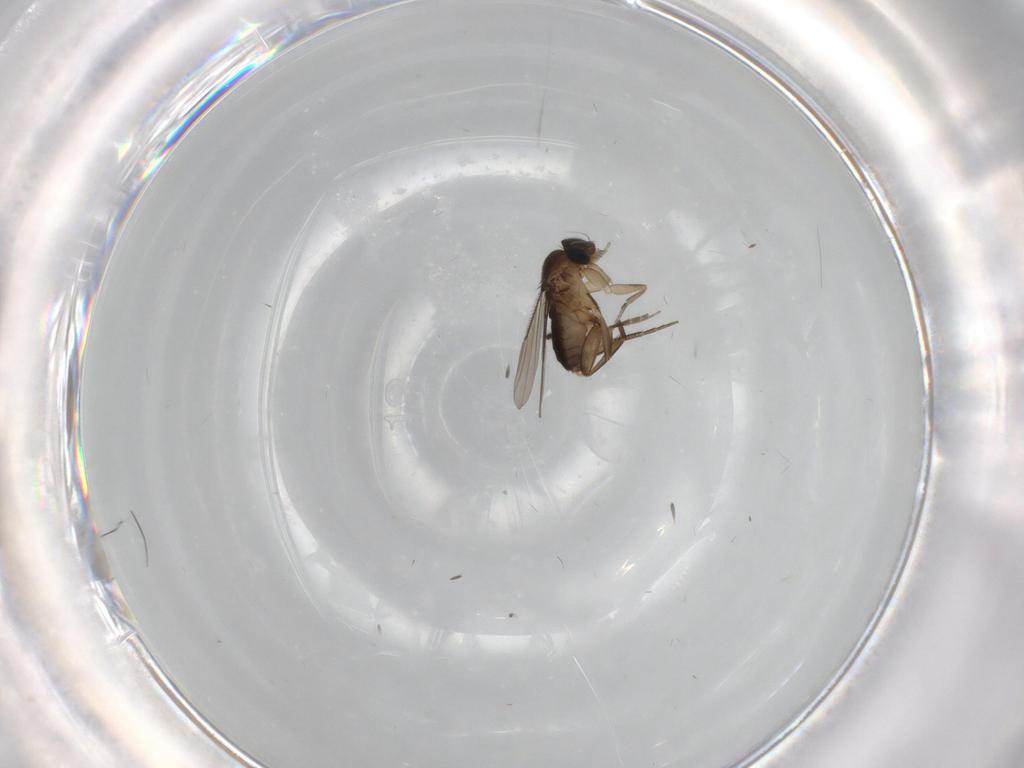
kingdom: Animalia
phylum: Arthropoda
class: Insecta
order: Diptera
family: Phoridae
